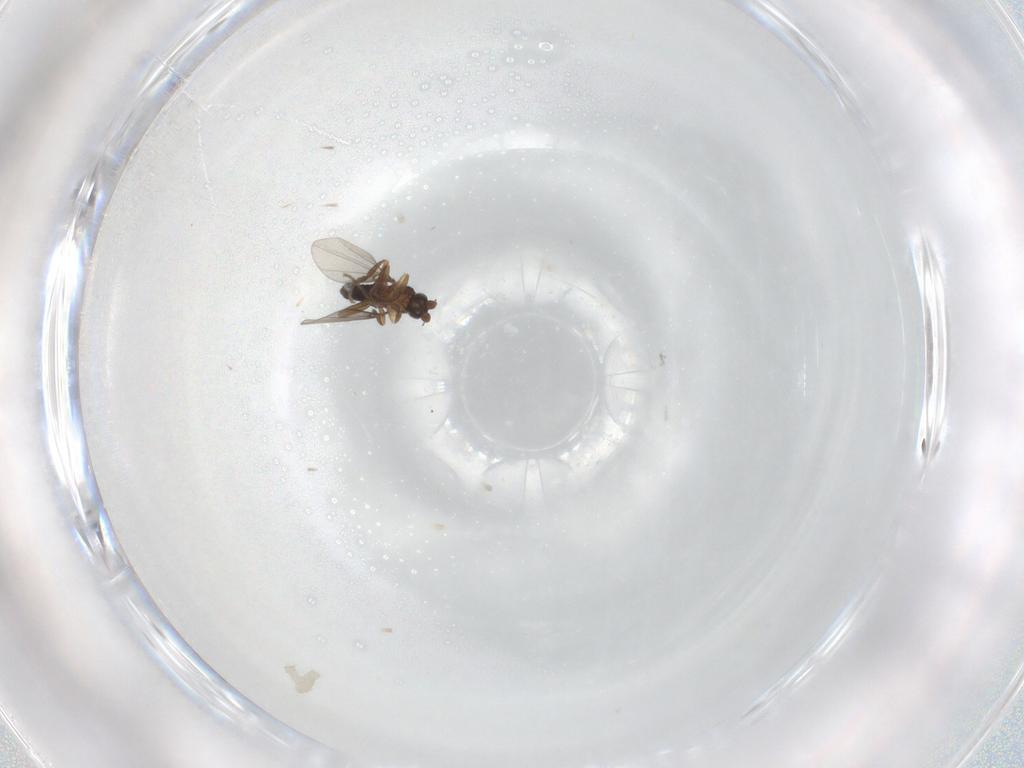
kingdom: Animalia
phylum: Arthropoda
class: Insecta
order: Diptera
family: Phoridae
